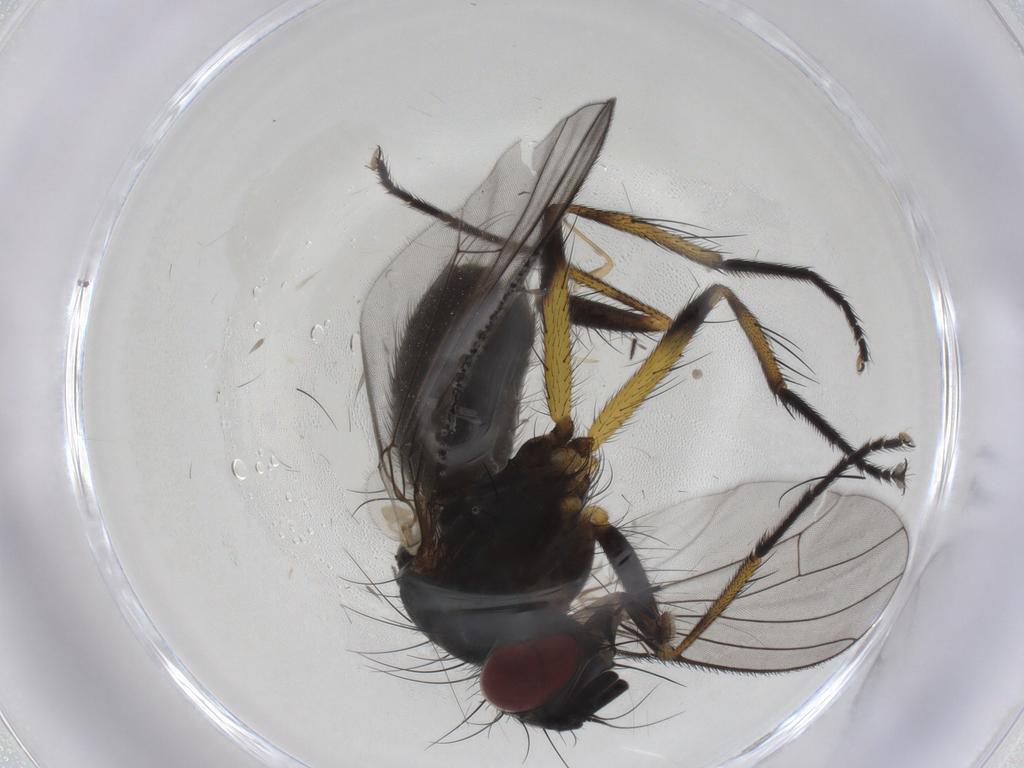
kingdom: Animalia
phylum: Arthropoda
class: Insecta
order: Diptera
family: Muscidae
